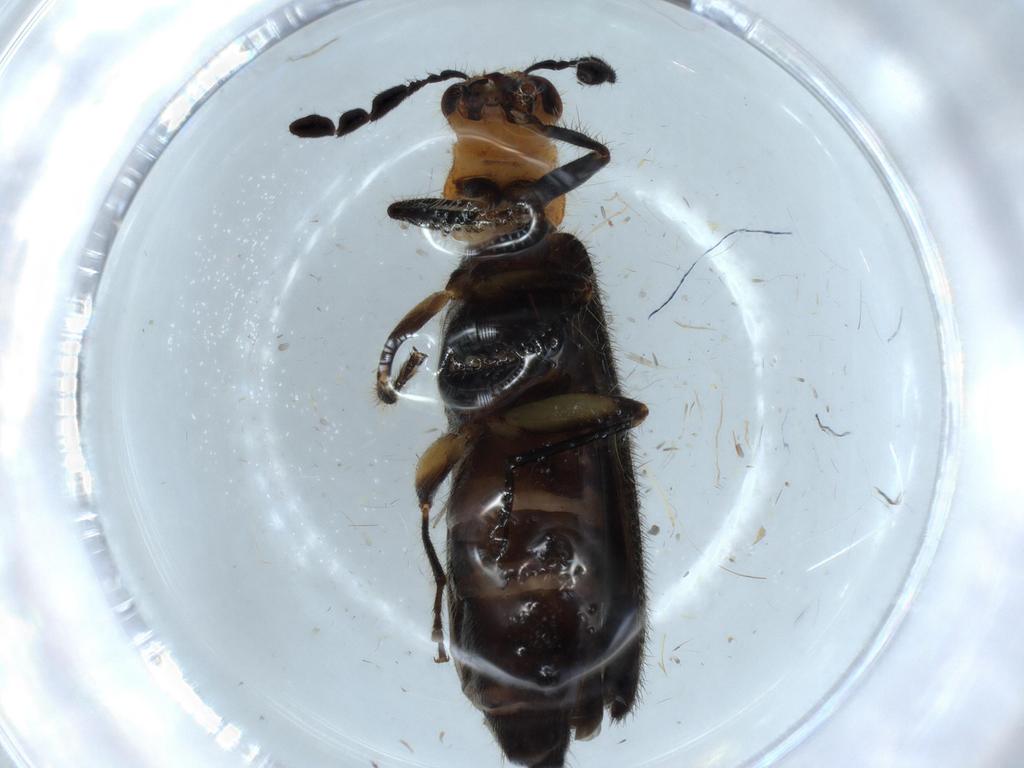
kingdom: Animalia
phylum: Arthropoda
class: Insecta
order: Coleoptera
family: Cleridae
